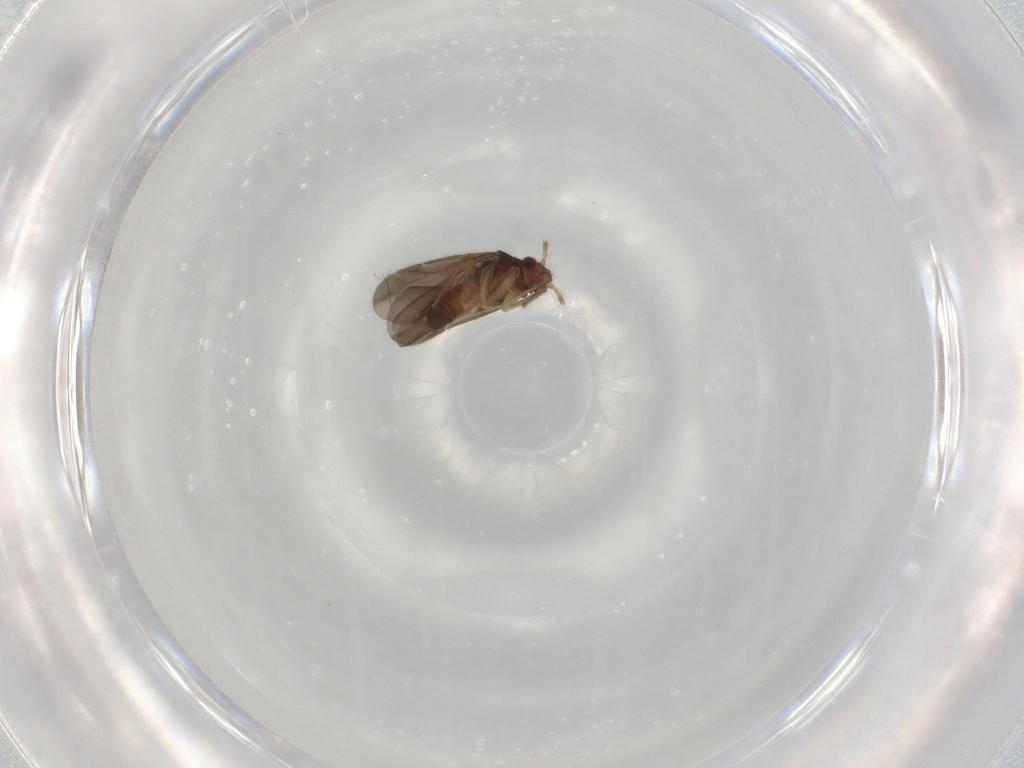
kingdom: Animalia
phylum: Arthropoda
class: Insecta
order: Hemiptera
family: Ceratocombidae
